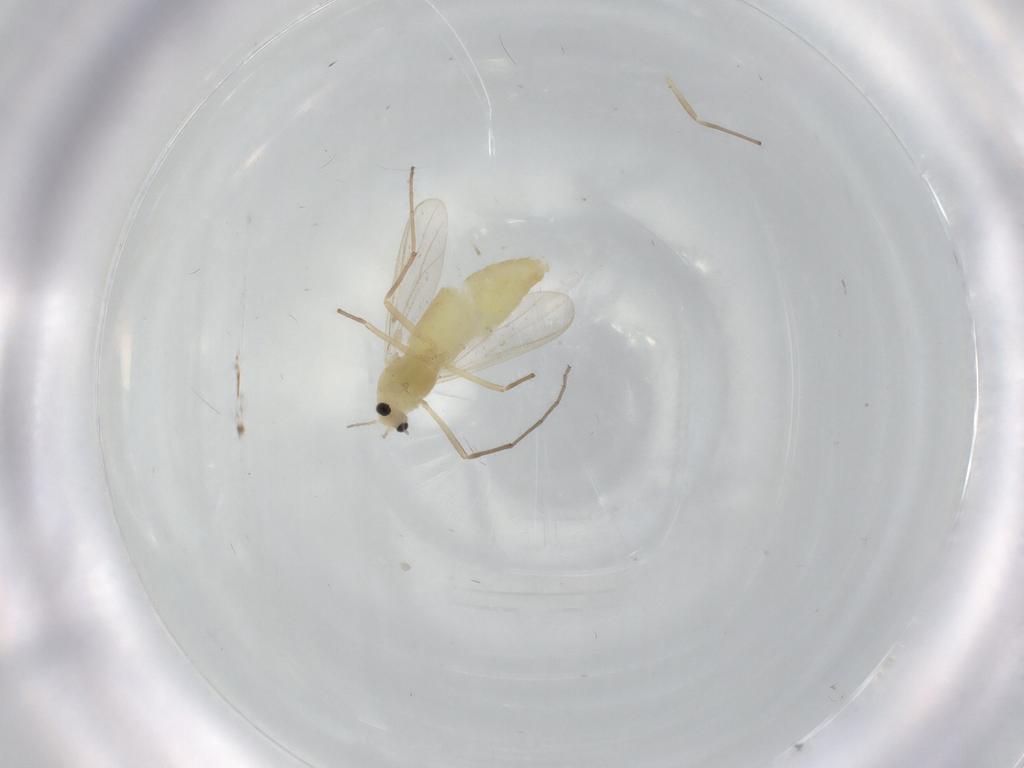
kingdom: Animalia
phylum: Arthropoda
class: Insecta
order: Diptera
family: Chironomidae
